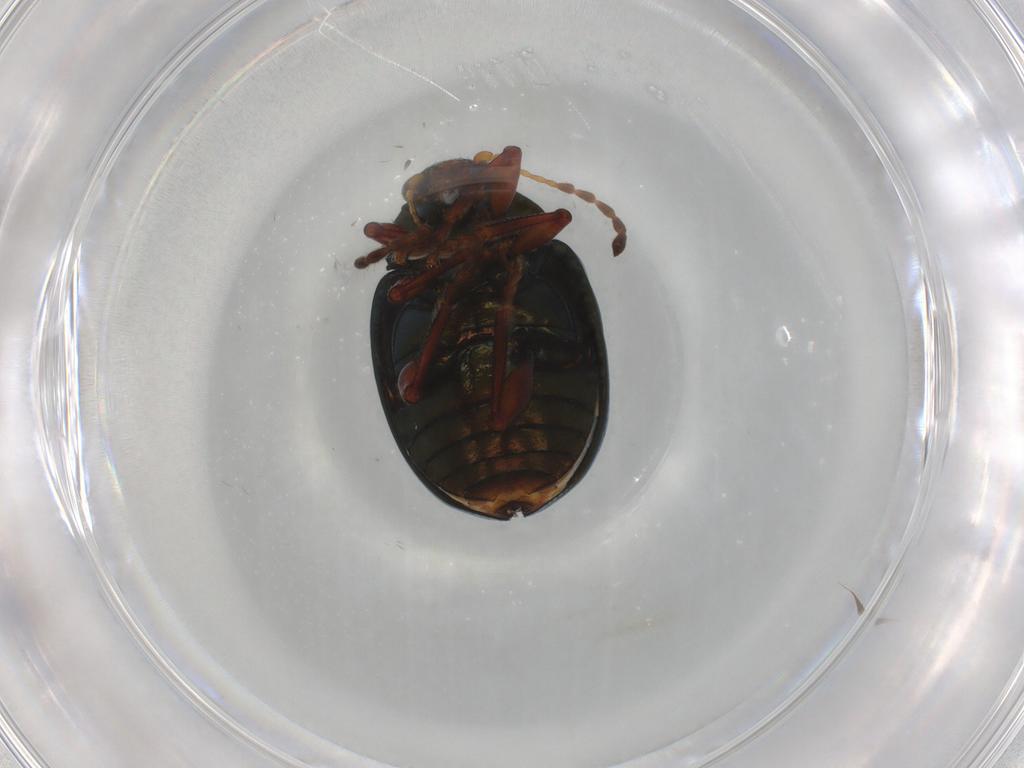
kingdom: Animalia
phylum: Arthropoda
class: Insecta
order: Coleoptera
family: Chrysomelidae
